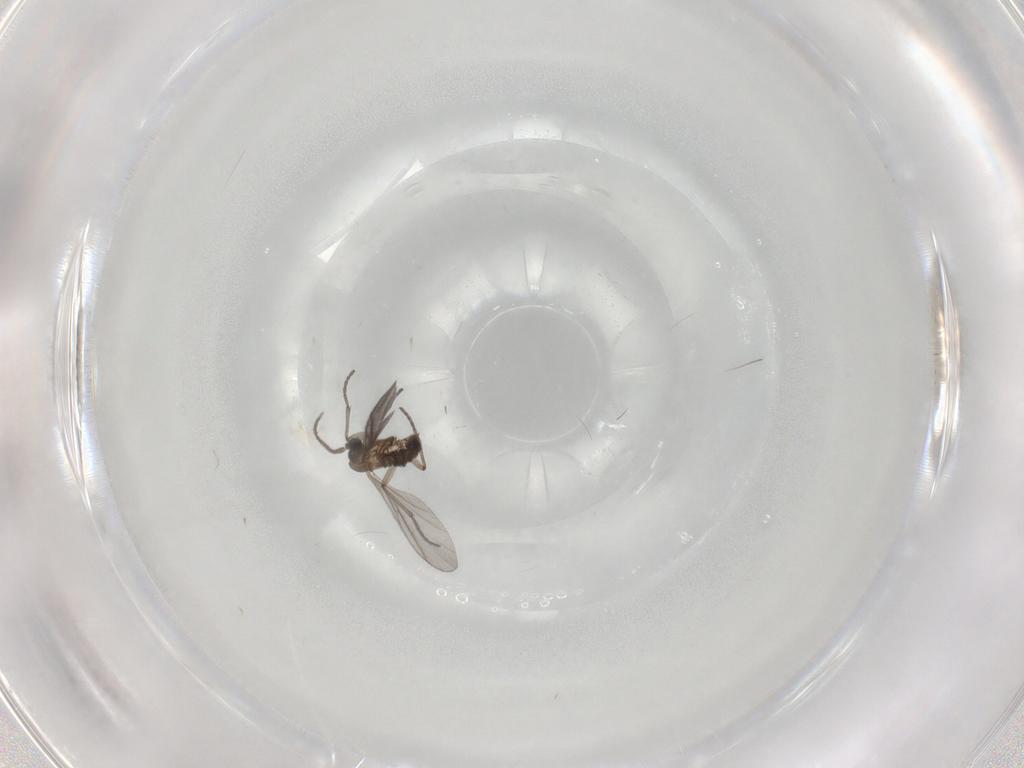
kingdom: Animalia
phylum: Arthropoda
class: Insecta
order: Diptera
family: Sciaridae
